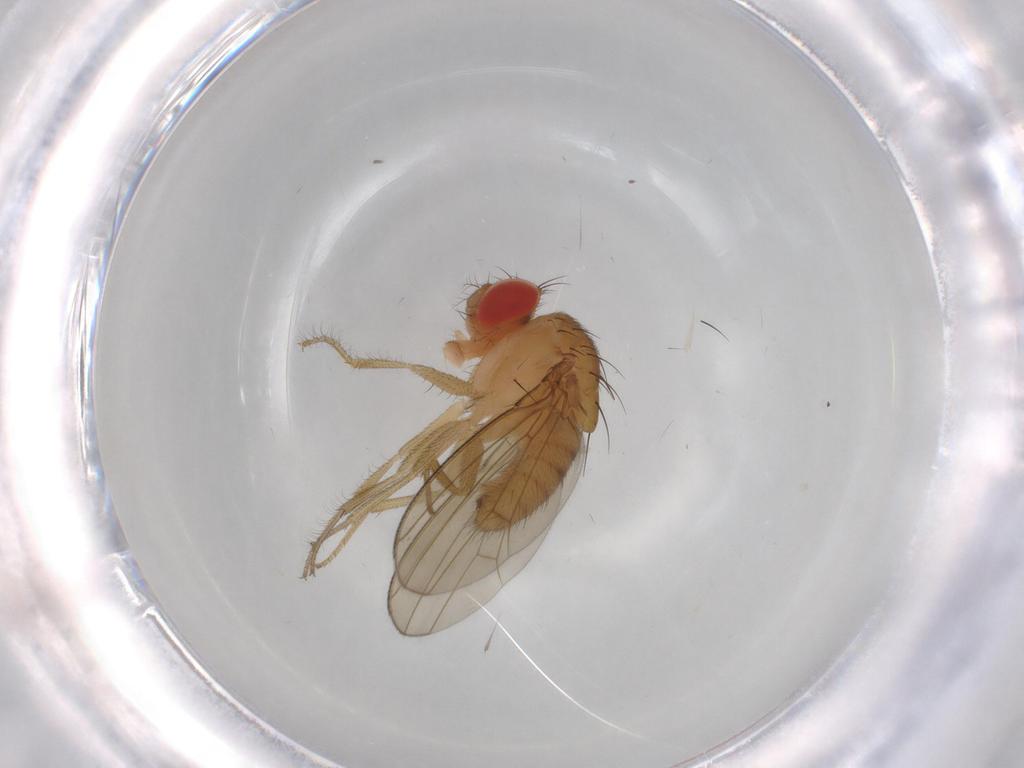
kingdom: Animalia
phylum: Arthropoda
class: Insecta
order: Diptera
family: Drosophilidae
